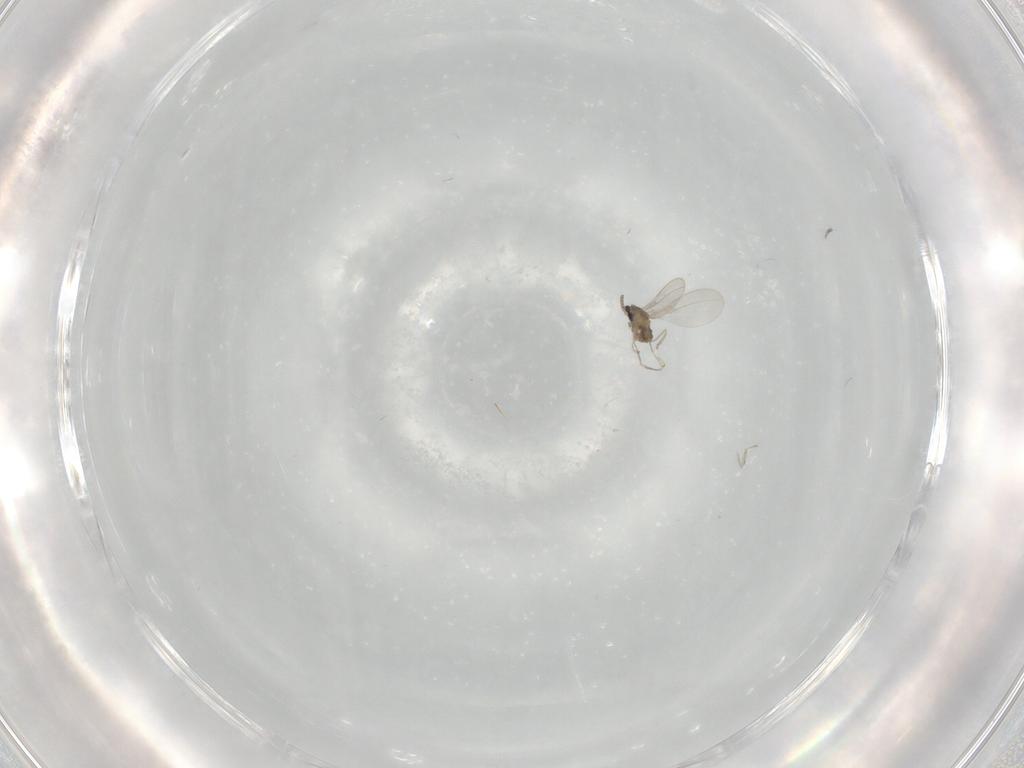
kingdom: Animalia
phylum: Arthropoda
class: Insecta
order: Diptera
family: Cecidomyiidae
